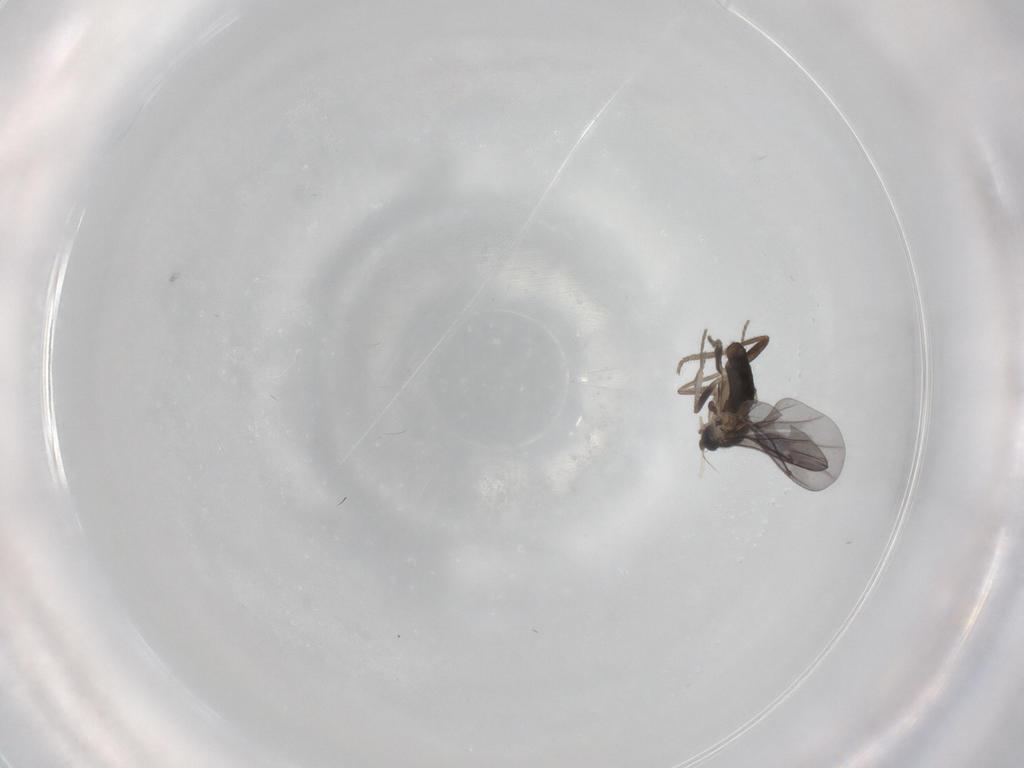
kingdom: Animalia
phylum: Arthropoda
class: Insecta
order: Diptera
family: Phoridae
